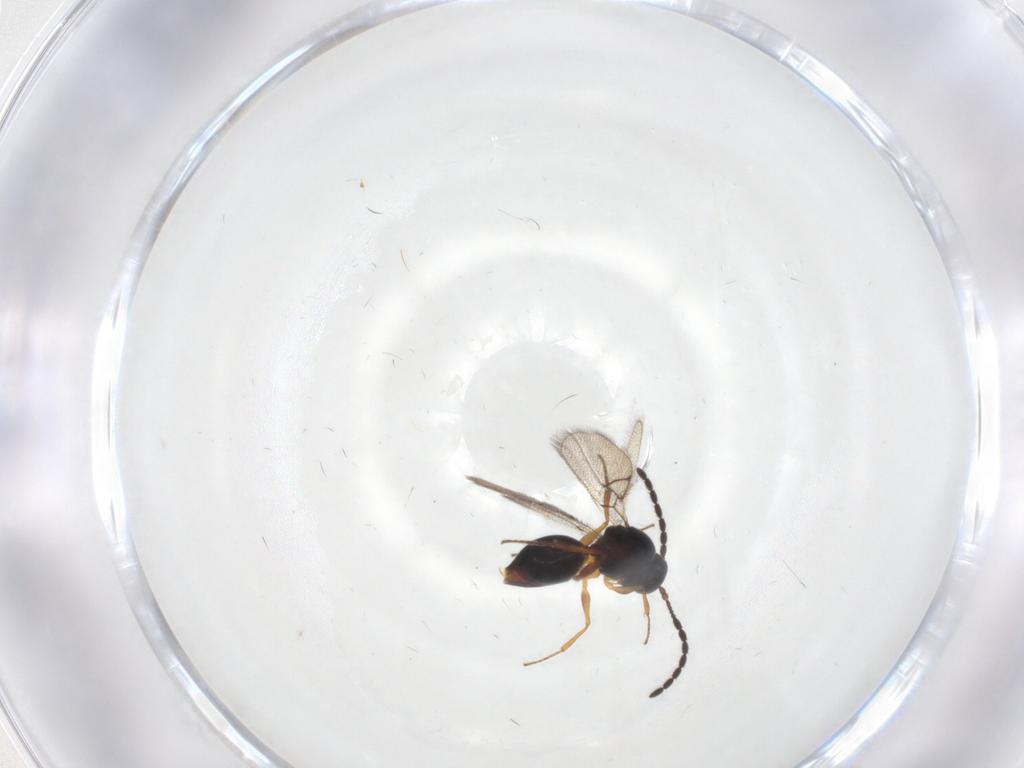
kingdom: Animalia
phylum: Arthropoda
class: Insecta
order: Hymenoptera
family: Figitidae
